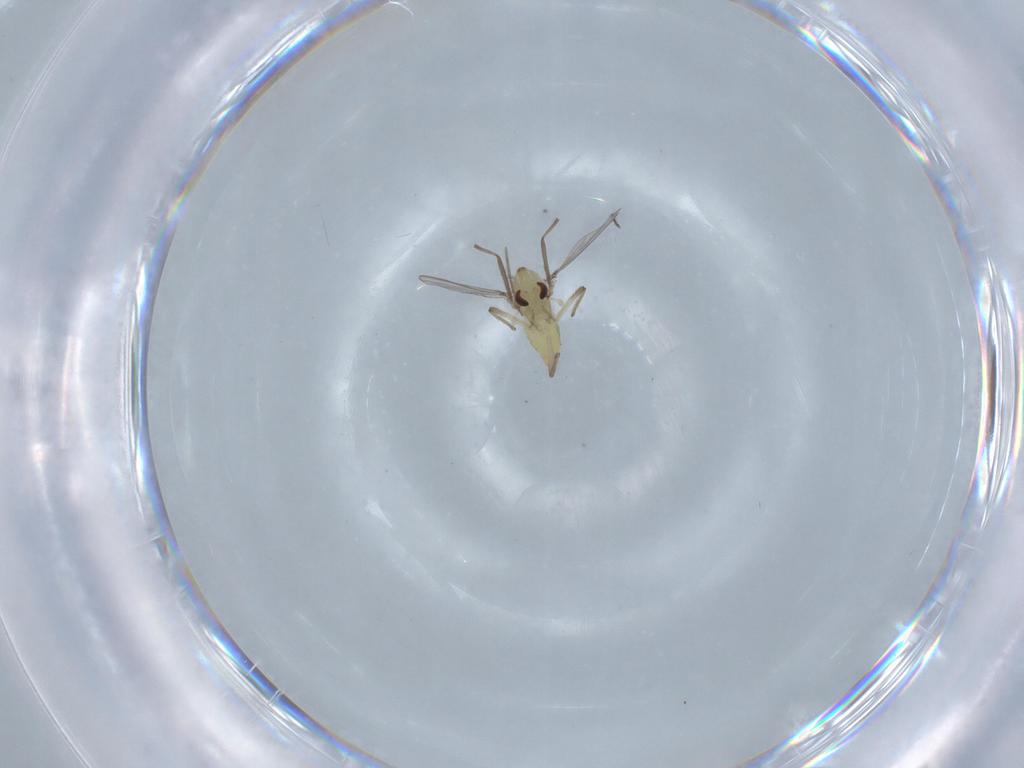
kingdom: Animalia
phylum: Arthropoda
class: Insecta
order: Diptera
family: Chironomidae
